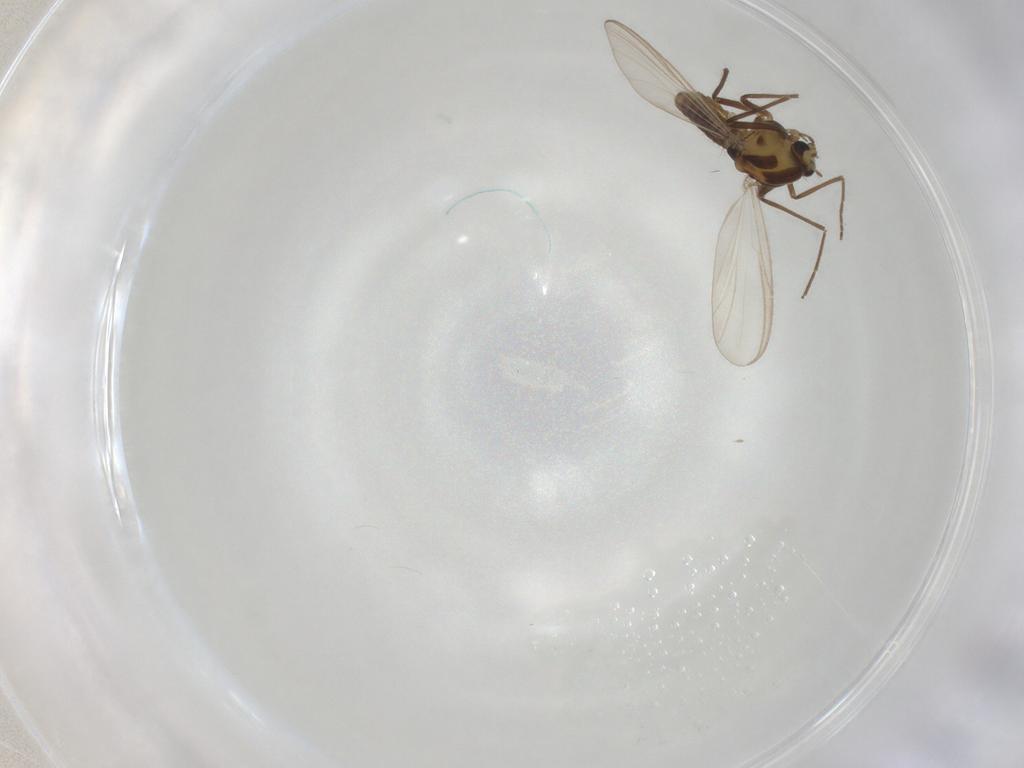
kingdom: Animalia
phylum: Arthropoda
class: Insecta
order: Diptera
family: Chironomidae
